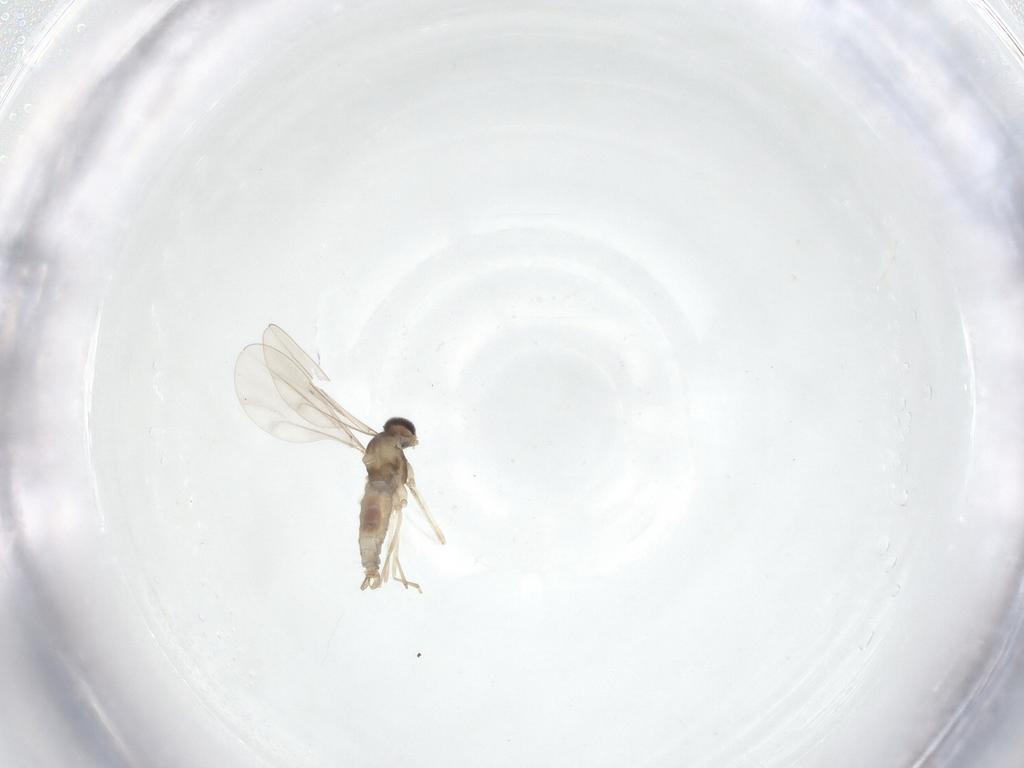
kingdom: Animalia
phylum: Arthropoda
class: Insecta
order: Diptera
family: Cecidomyiidae
